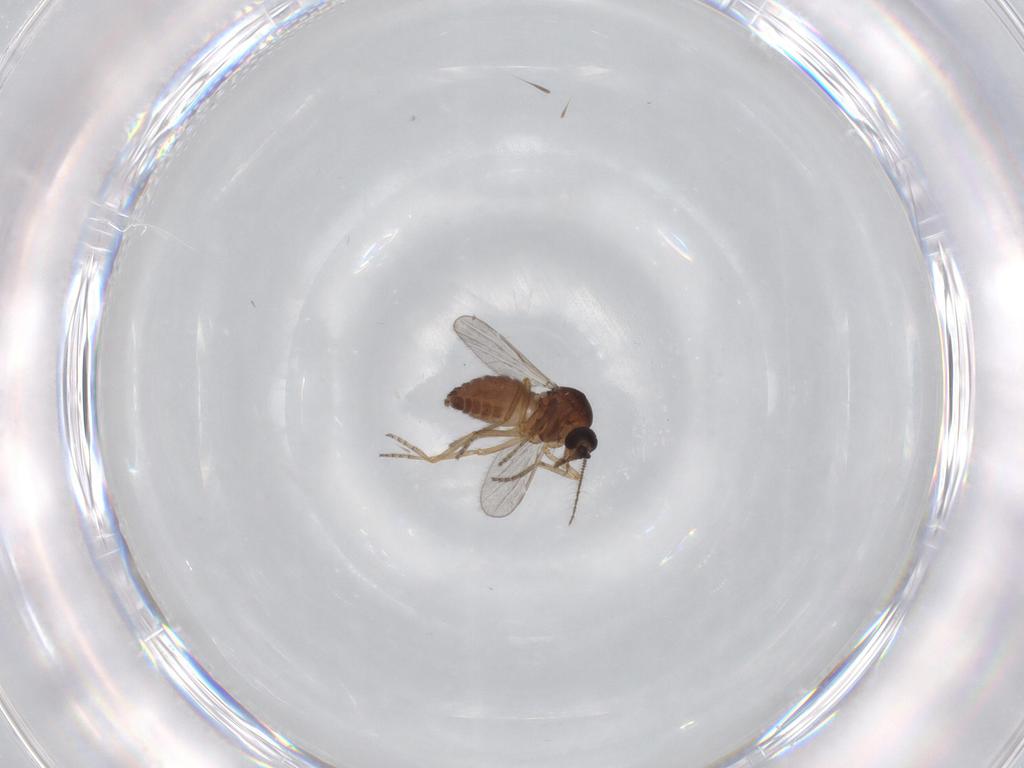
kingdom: Animalia
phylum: Arthropoda
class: Insecta
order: Diptera
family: Ceratopogonidae
